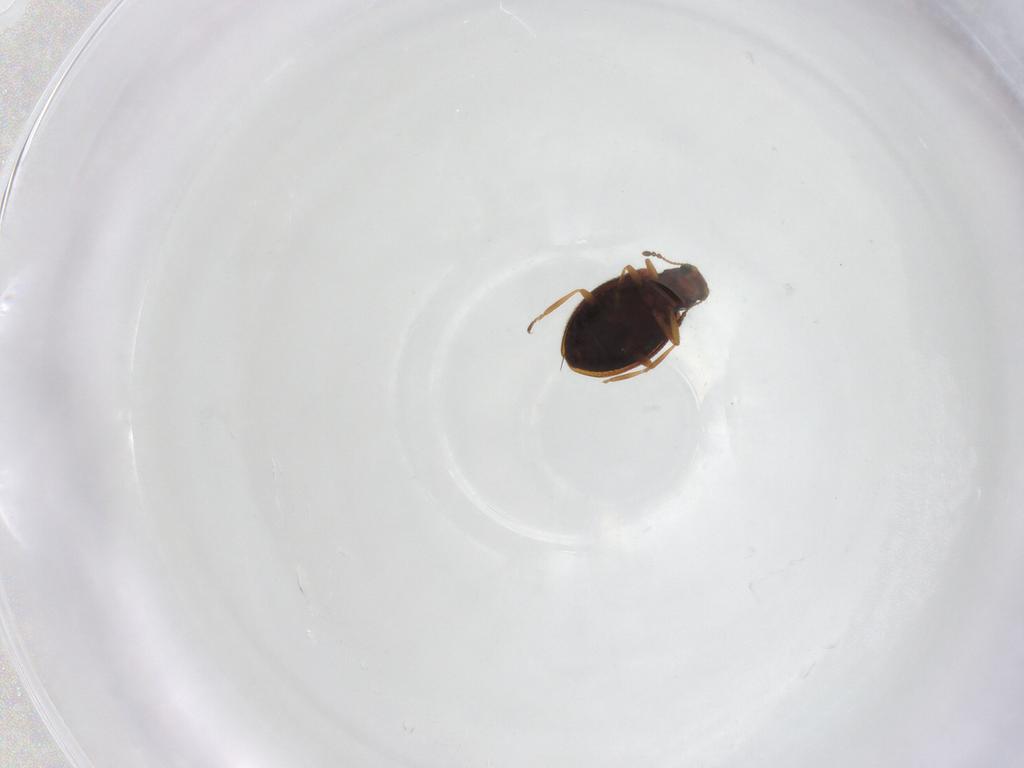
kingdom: Animalia
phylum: Arthropoda
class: Insecta
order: Coleoptera
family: Latridiidae
